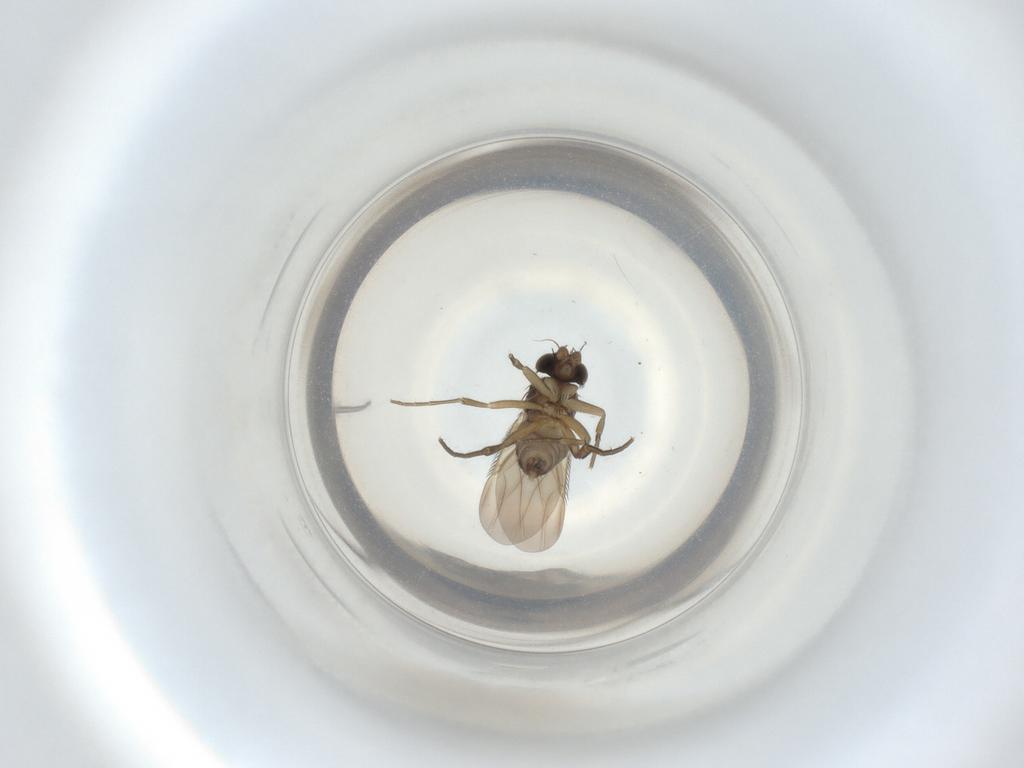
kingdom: Animalia
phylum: Arthropoda
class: Insecta
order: Diptera
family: Phoridae
